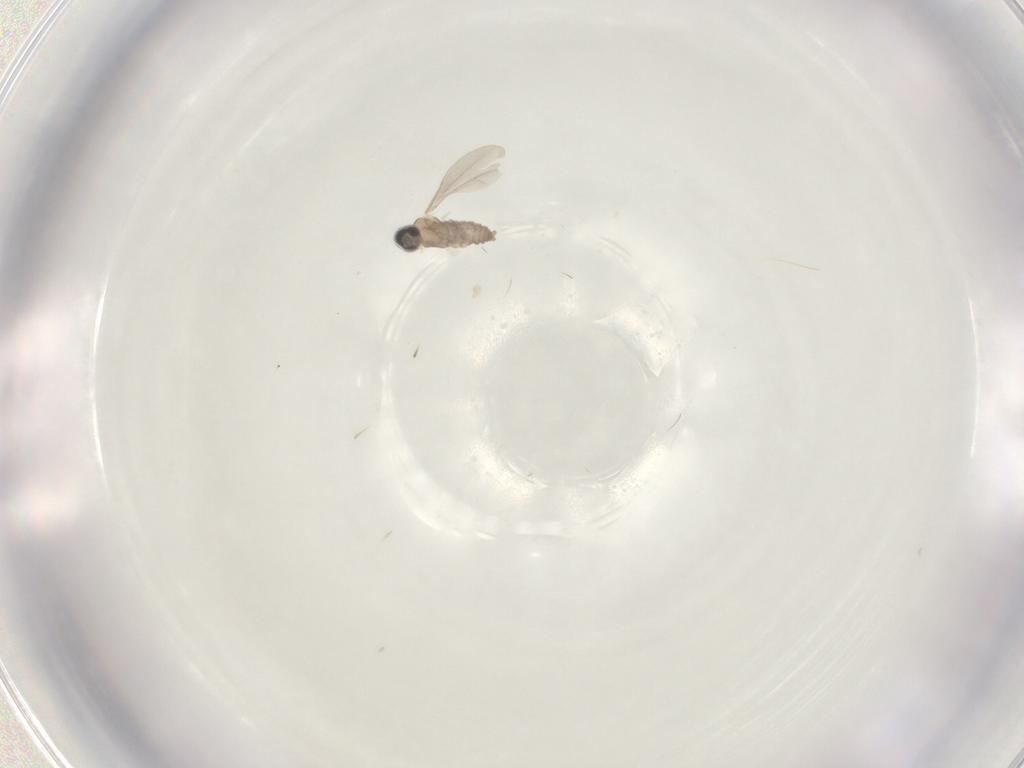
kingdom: Animalia
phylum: Arthropoda
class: Insecta
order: Diptera
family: Cecidomyiidae
